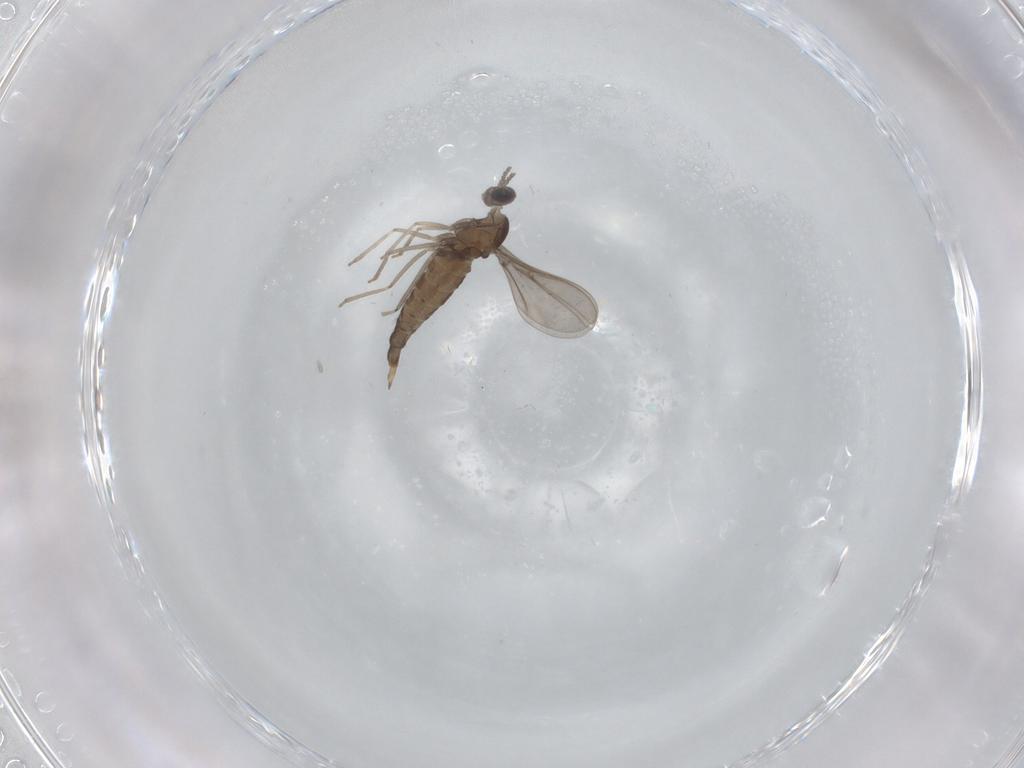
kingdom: Animalia
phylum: Arthropoda
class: Insecta
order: Diptera
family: Cecidomyiidae
